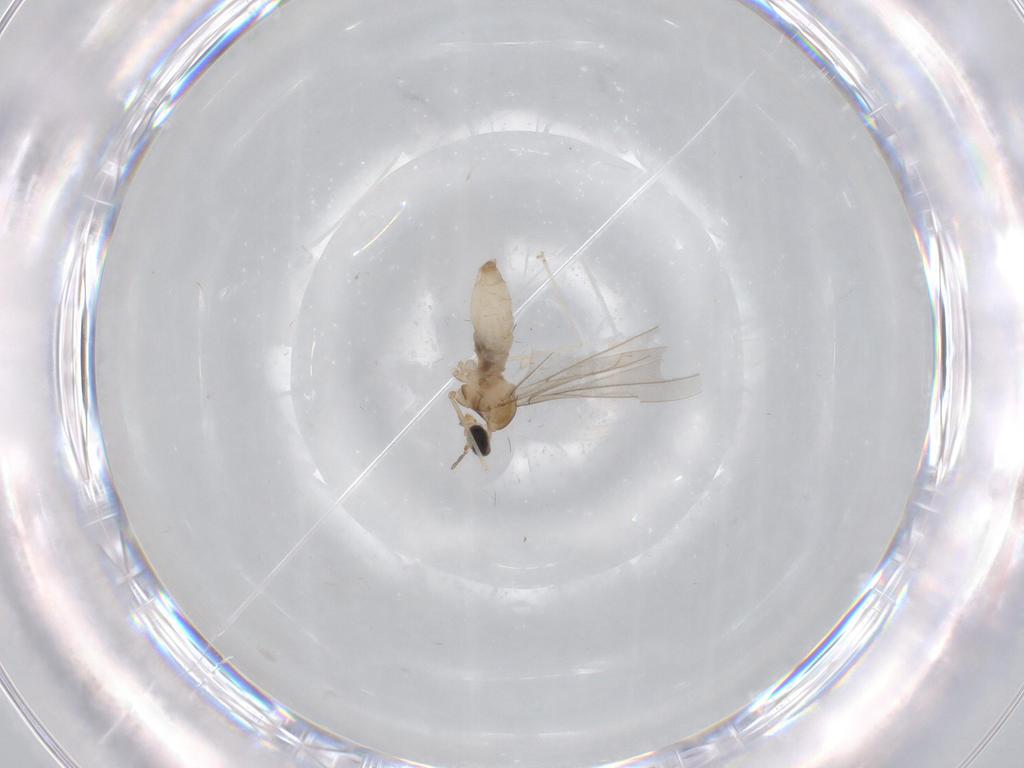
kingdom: Animalia
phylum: Arthropoda
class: Insecta
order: Diptera
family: Cecidomyiidae
